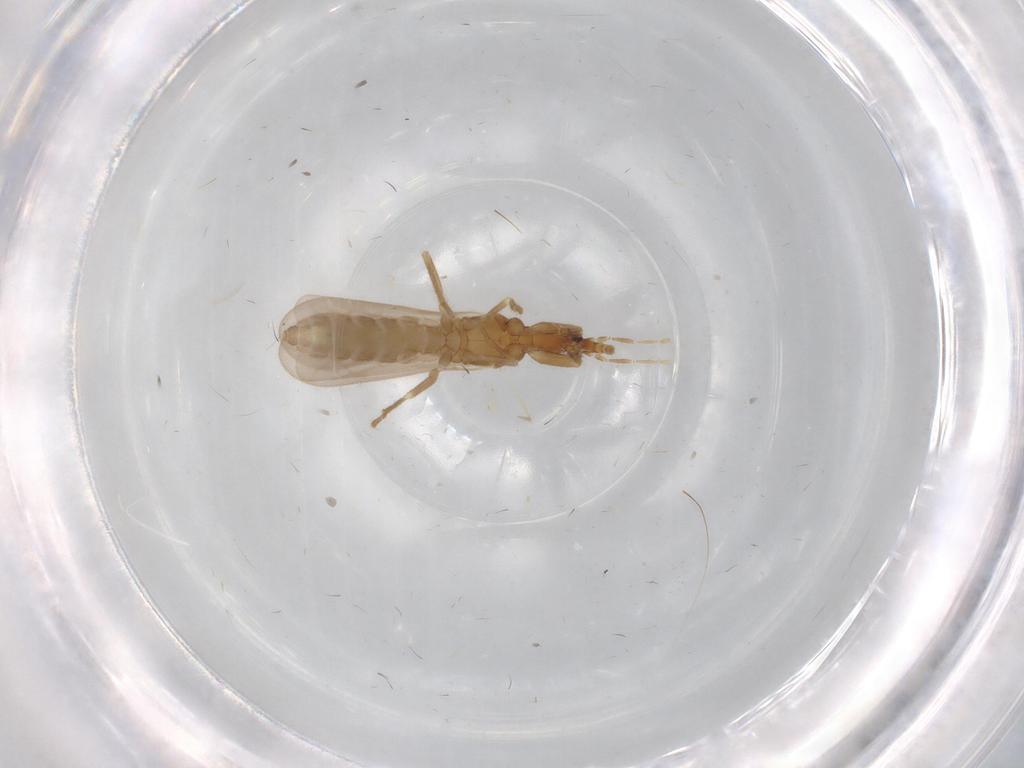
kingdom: Animalia
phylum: Arthropoda
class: Insecta
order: Hemiptera
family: Enicocephalidae
